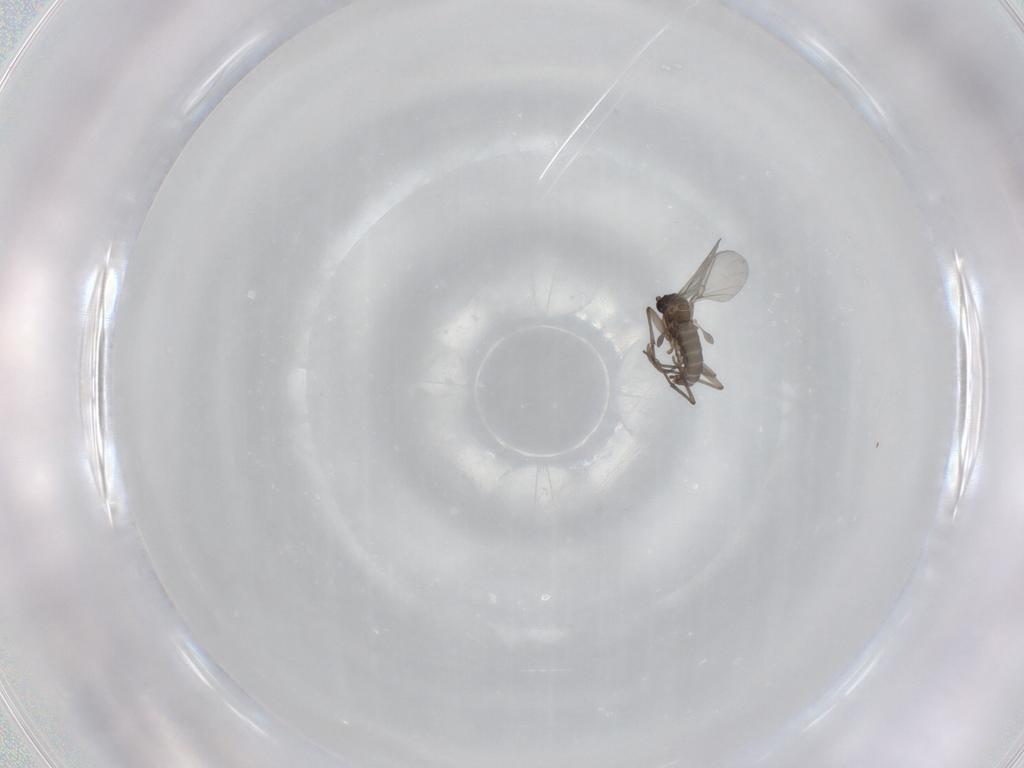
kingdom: Animalia
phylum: Arthropoda
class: Insecta
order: Diptera
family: Sciaridae
